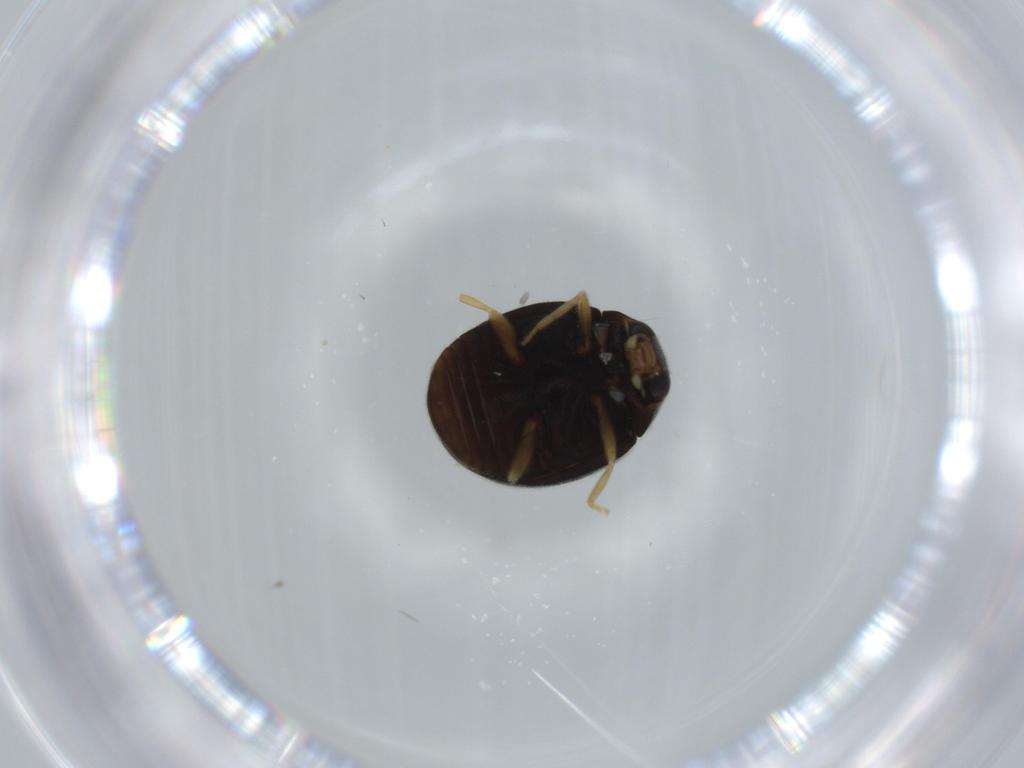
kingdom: Animalia
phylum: Arthropoda
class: Insecta
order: Coleoptera
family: Coccinellidae
